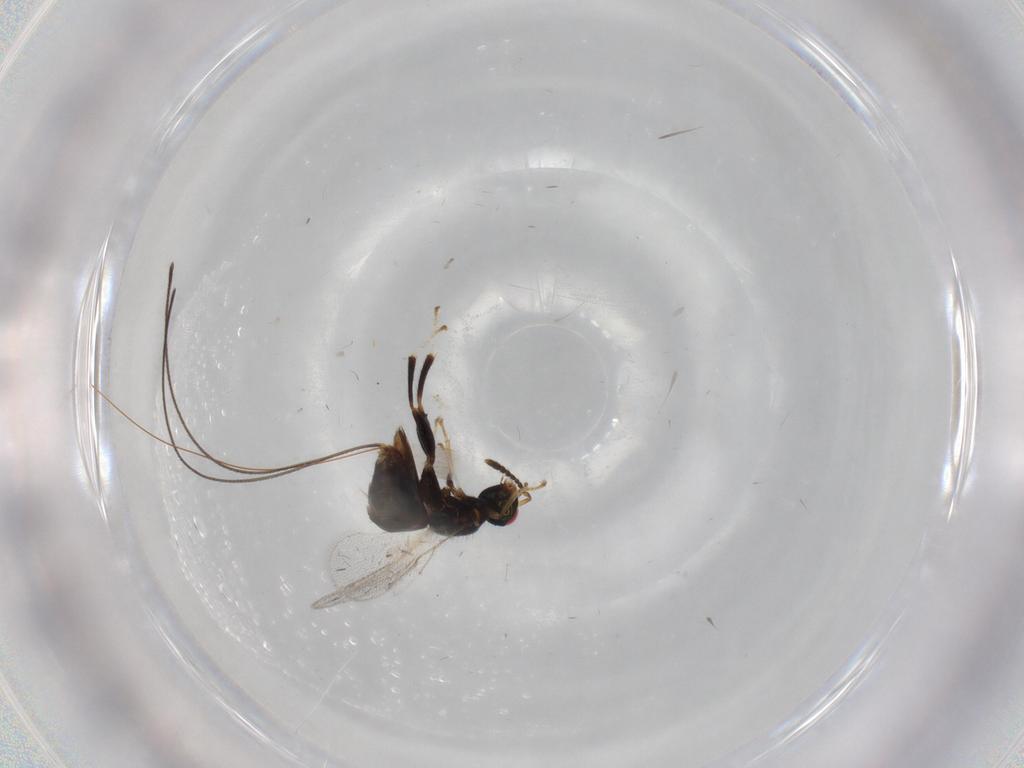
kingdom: Animalia
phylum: Arthropoda
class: Insecta
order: Hymenoptera
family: Torymidae
